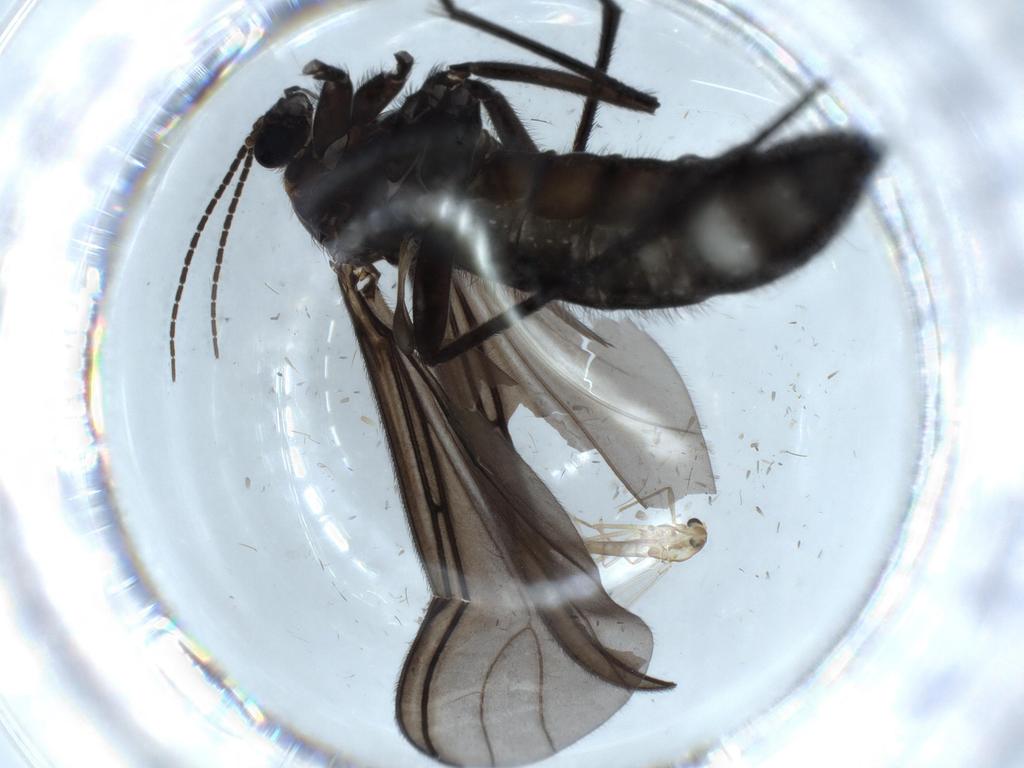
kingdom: Animalia
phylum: Arthropoda
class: Insecta
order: Diptera
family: Sciaridae
